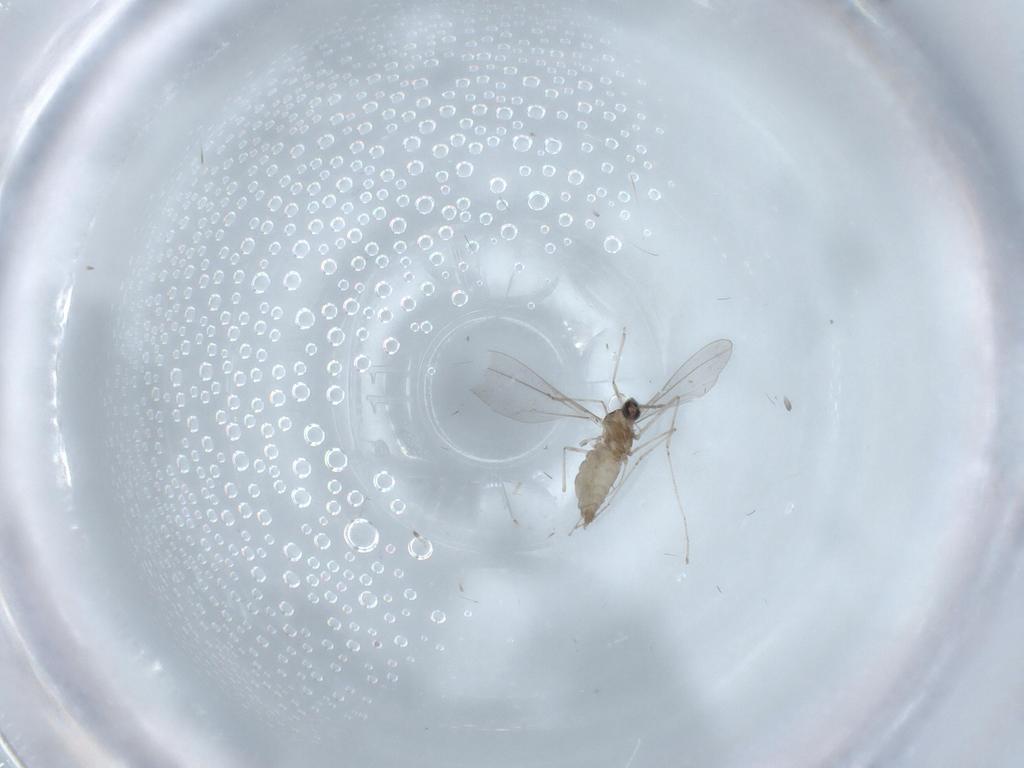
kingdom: Animalia
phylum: Arthropoda
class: Insecta
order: Diptera
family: Cecidomyiidae
